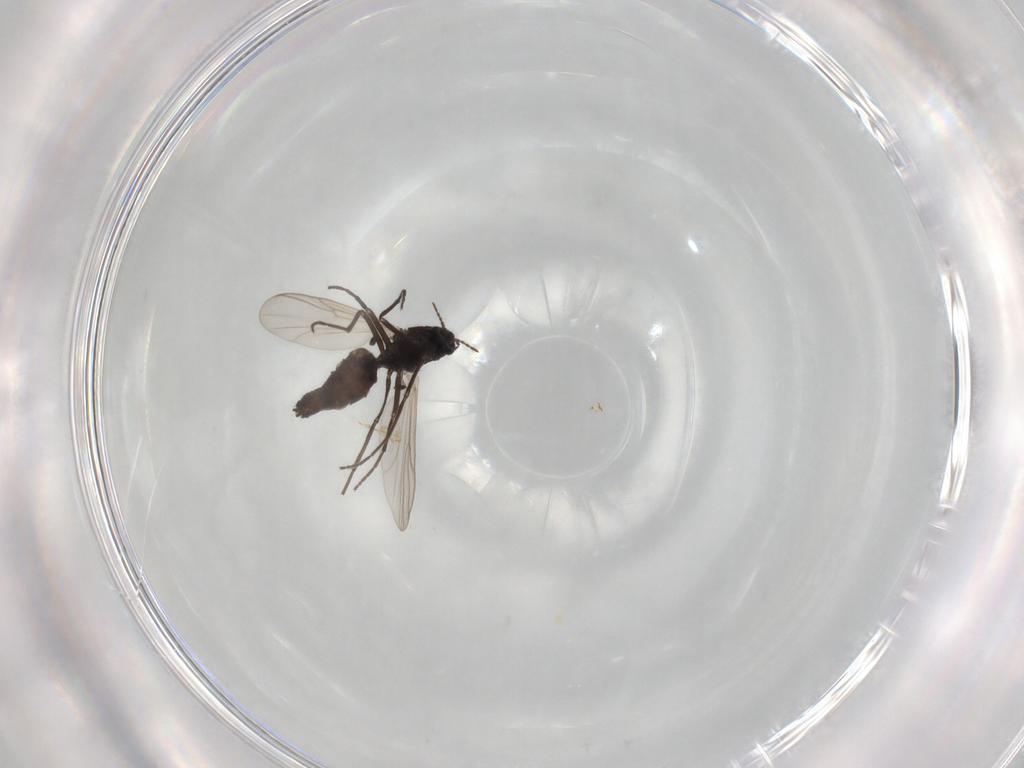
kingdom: Animalia
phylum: Arthropoda
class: Insecta
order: Diptera
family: Chironomidae
